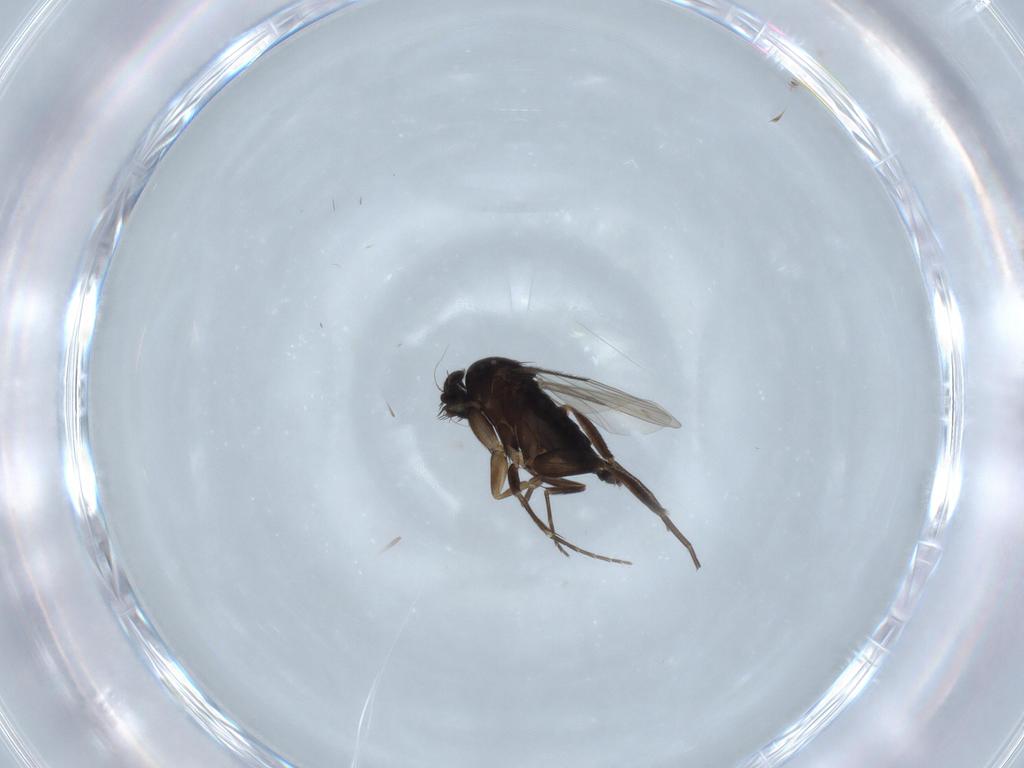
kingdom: Animalia
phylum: Arthropoda
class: Insecta
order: Diptera
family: Phoridae
